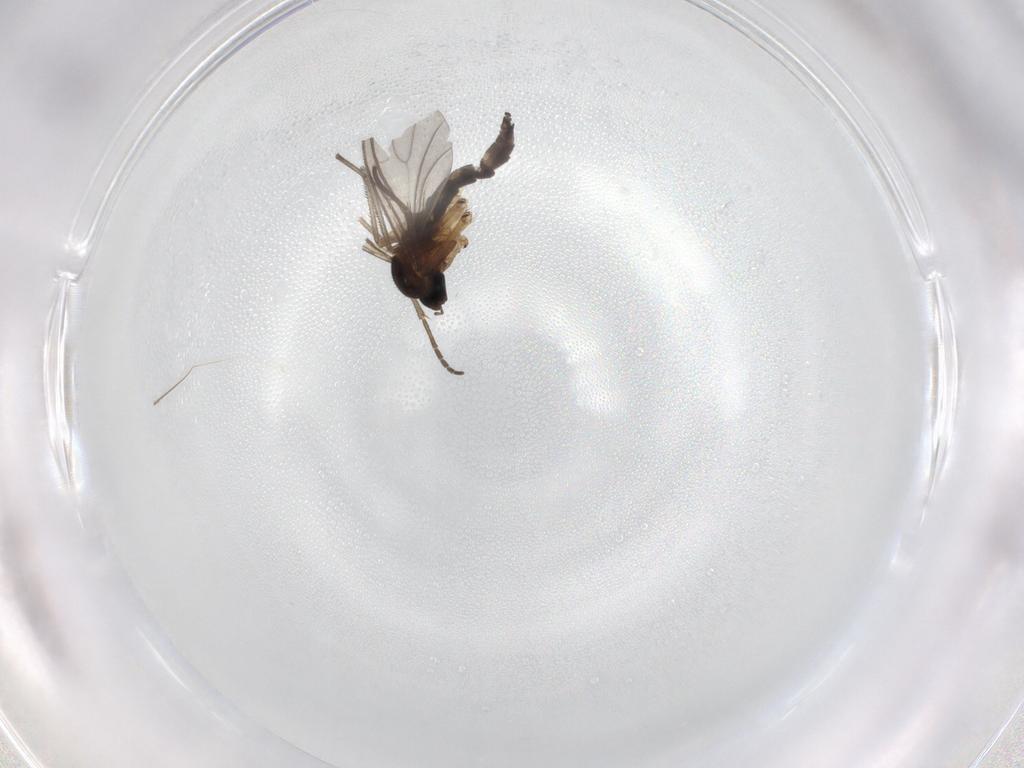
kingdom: Animalia
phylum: Arthropoda
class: Insecta
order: Diptera
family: Sciaridae
